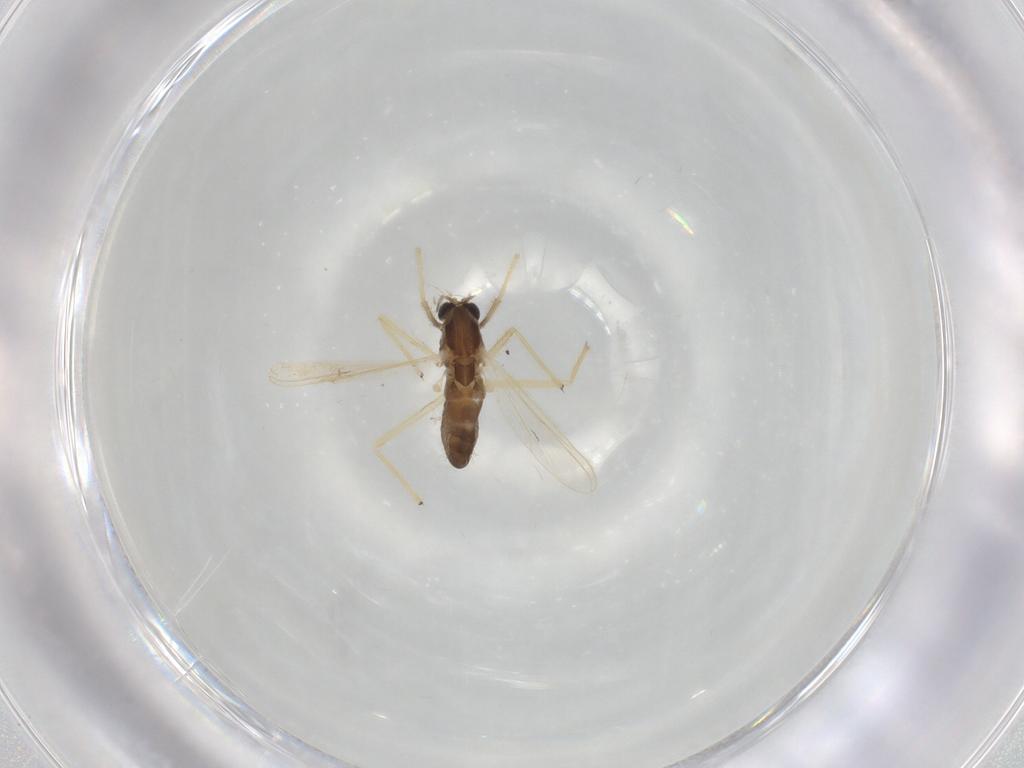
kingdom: Animalia
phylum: Arthropoda
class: Insecta
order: Diptera
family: Chironomidae
